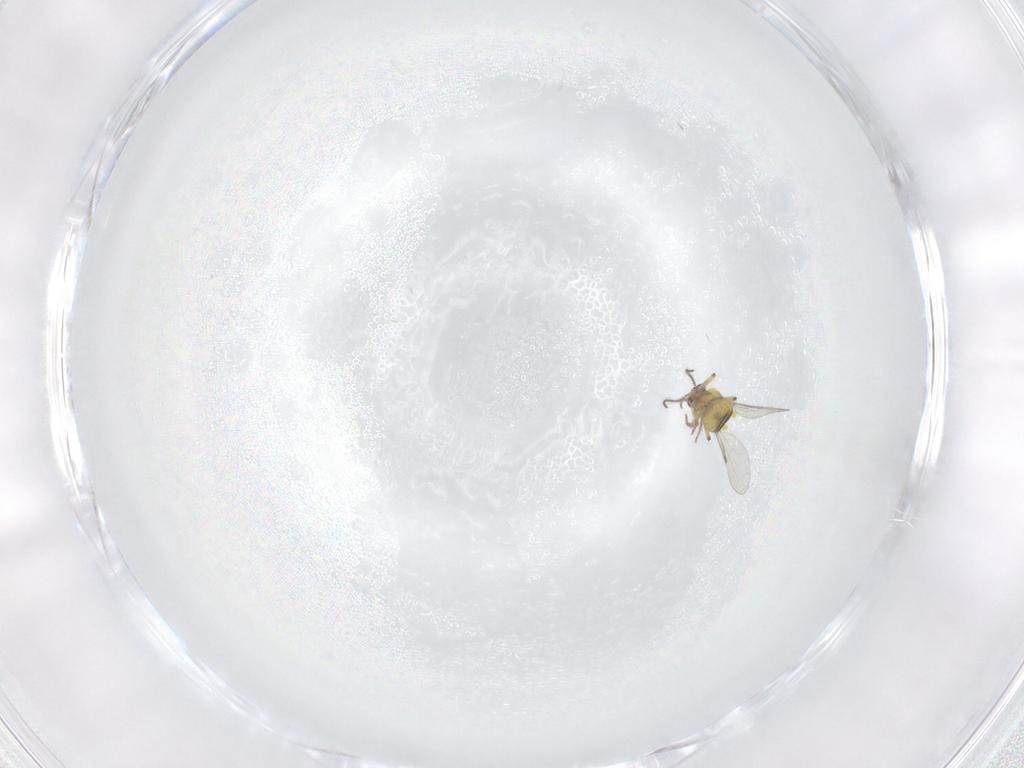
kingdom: Animalia
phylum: Arthropoda
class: Insecta
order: Diptera
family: Ceratopogonidae
